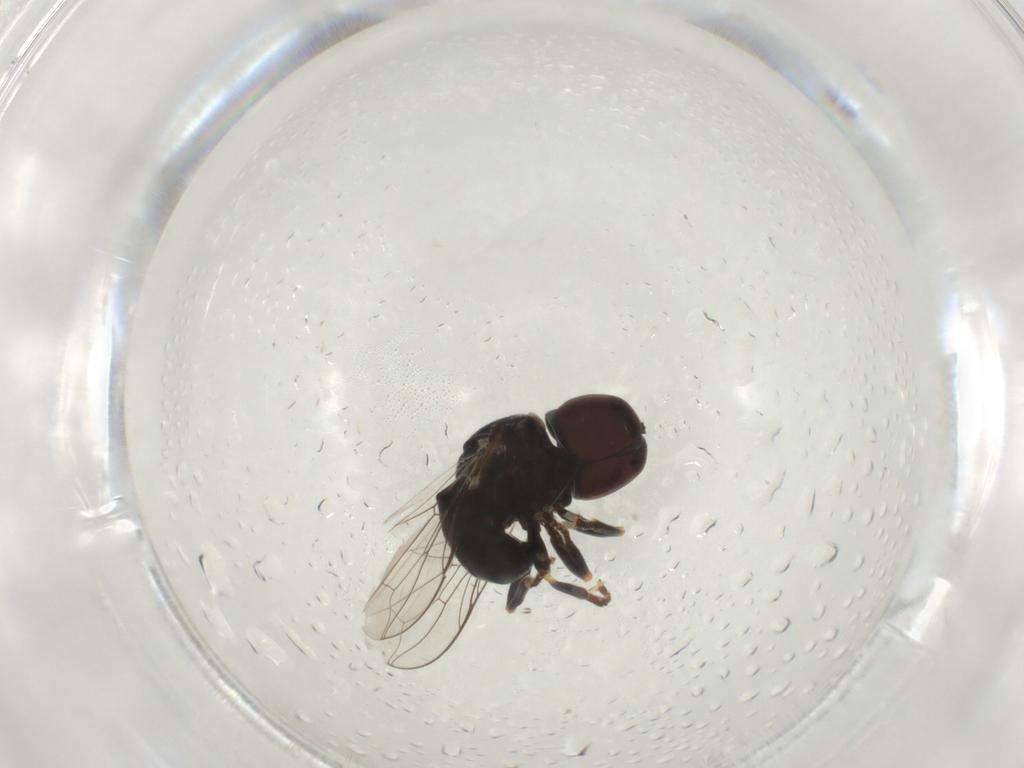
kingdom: Animalia
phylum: Arthropoda
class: Insecta
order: Diptera
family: Pipunculidae
